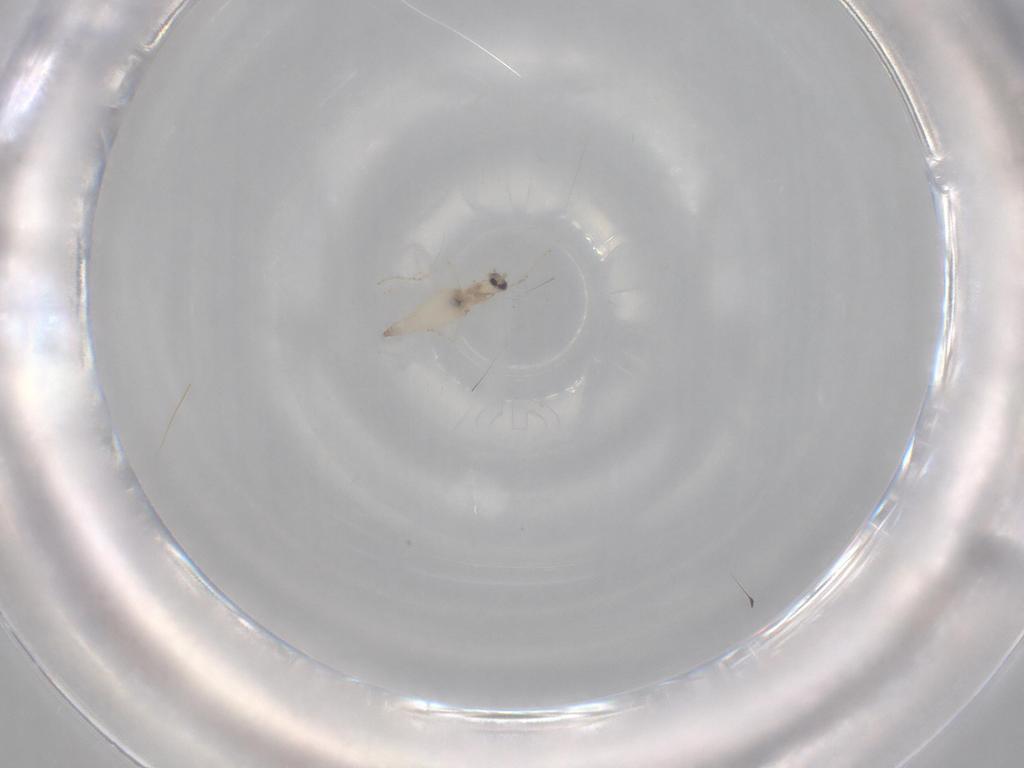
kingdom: Animalia
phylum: Arthropoda
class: Insecta
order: Diptera
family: Cecidomyiidae
